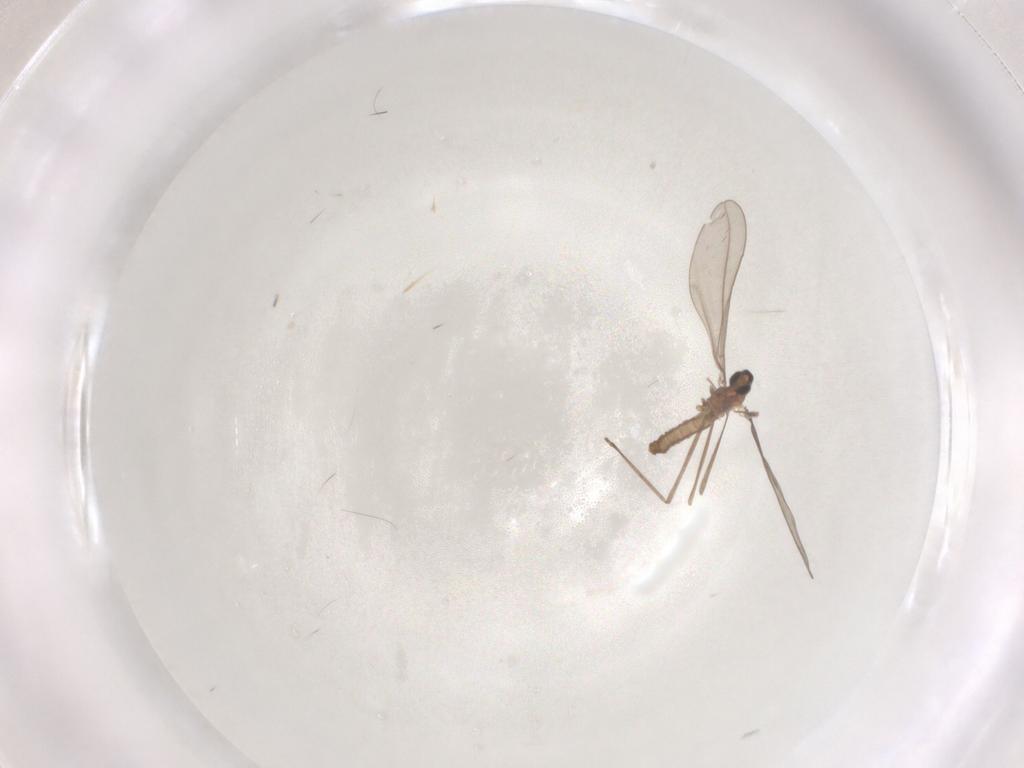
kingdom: Animalia
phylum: Arthropoda
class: Insecta
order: Diptera
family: Cecidomyiidae
